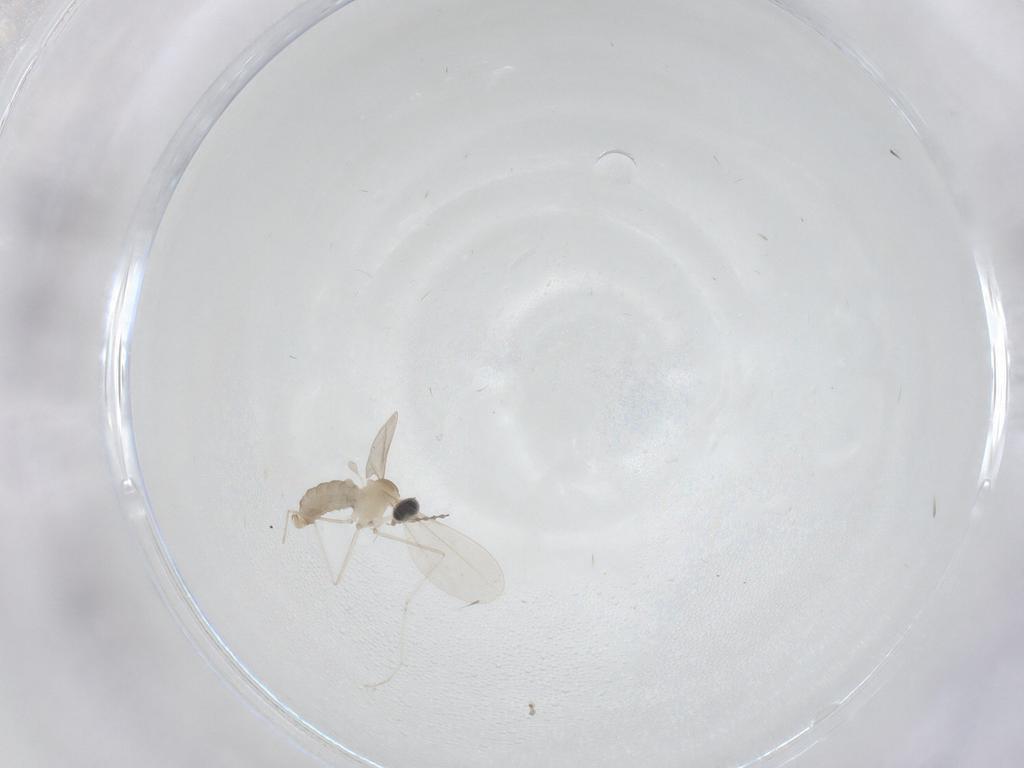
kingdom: Animalia
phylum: Arthropoda
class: Insecta
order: Diptera
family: Cecidomyiidae
